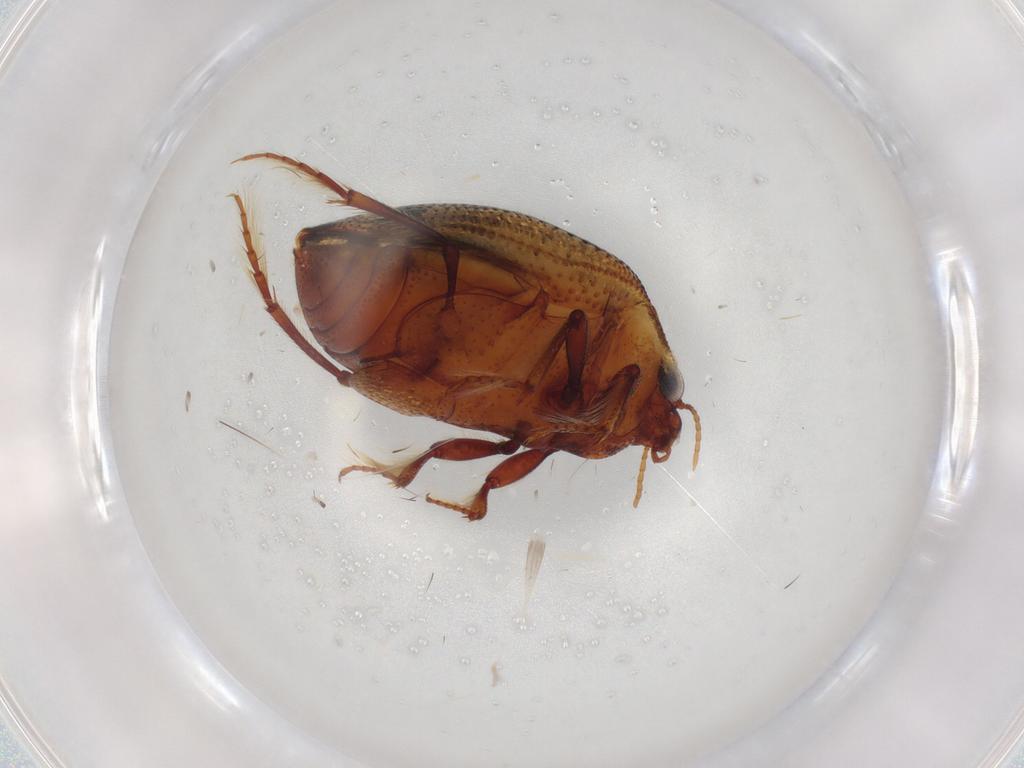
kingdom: Animalia
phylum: Arthropoda
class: Insecta
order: Coleoptera
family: Haliplidae
